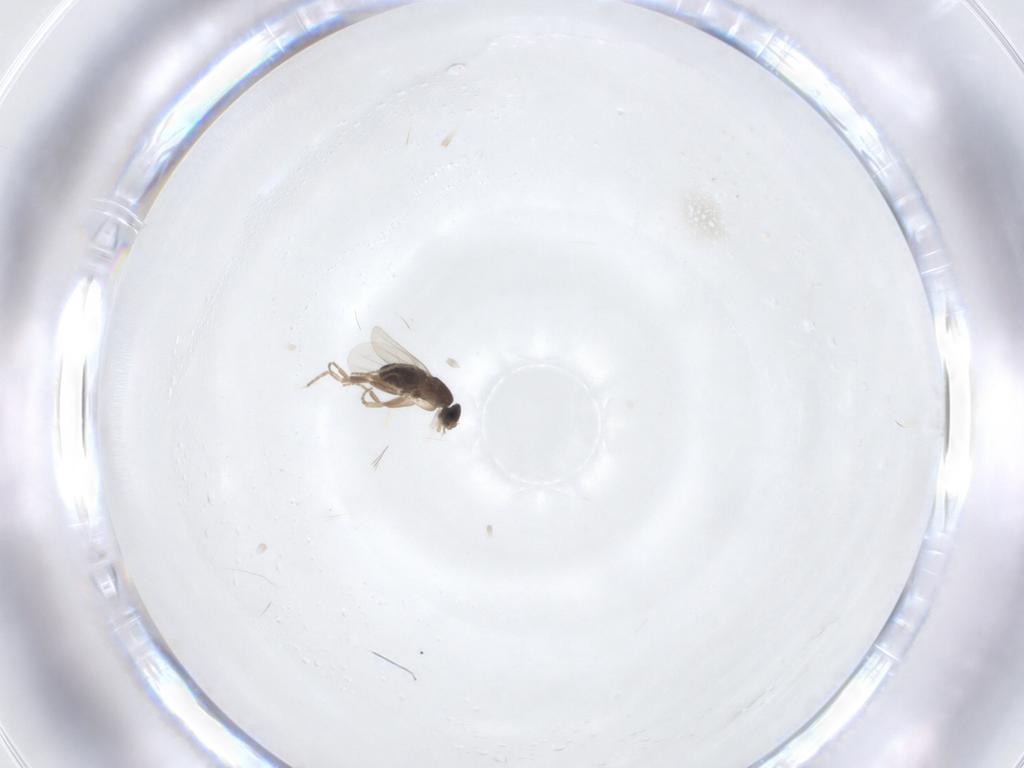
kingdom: Animalia
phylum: Arthropoda
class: Insecta
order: Diptera
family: Phoridae
